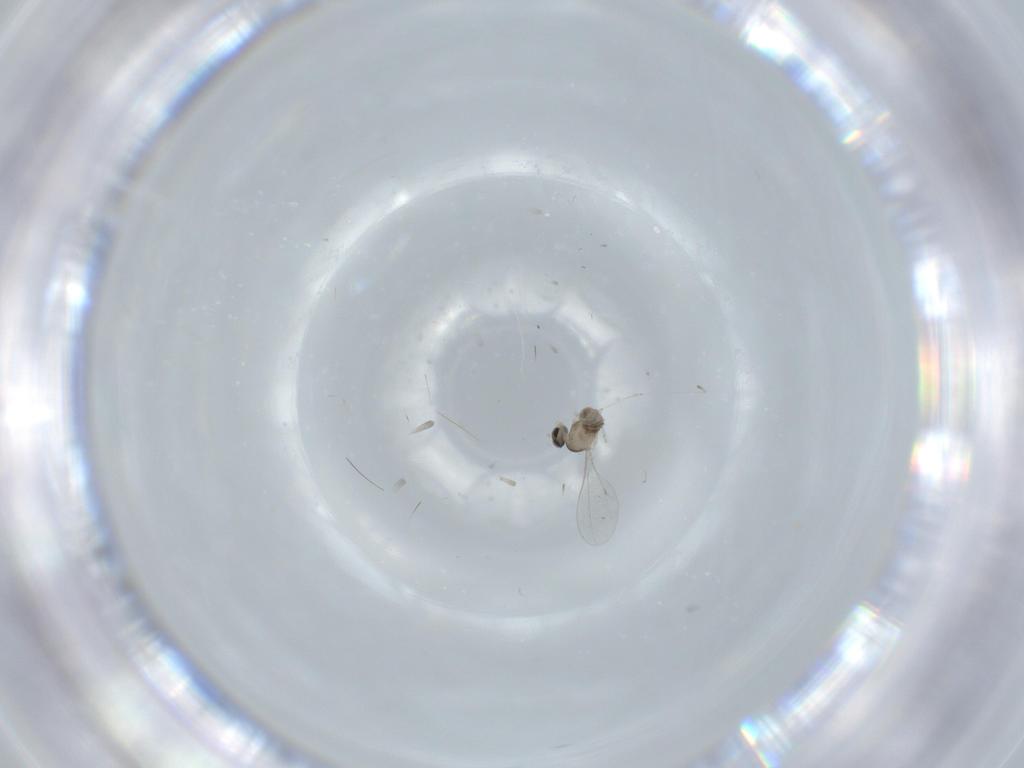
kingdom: Animalia
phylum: Arthropoda
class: Insecta
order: Diptera
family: Cecidomyiidae
